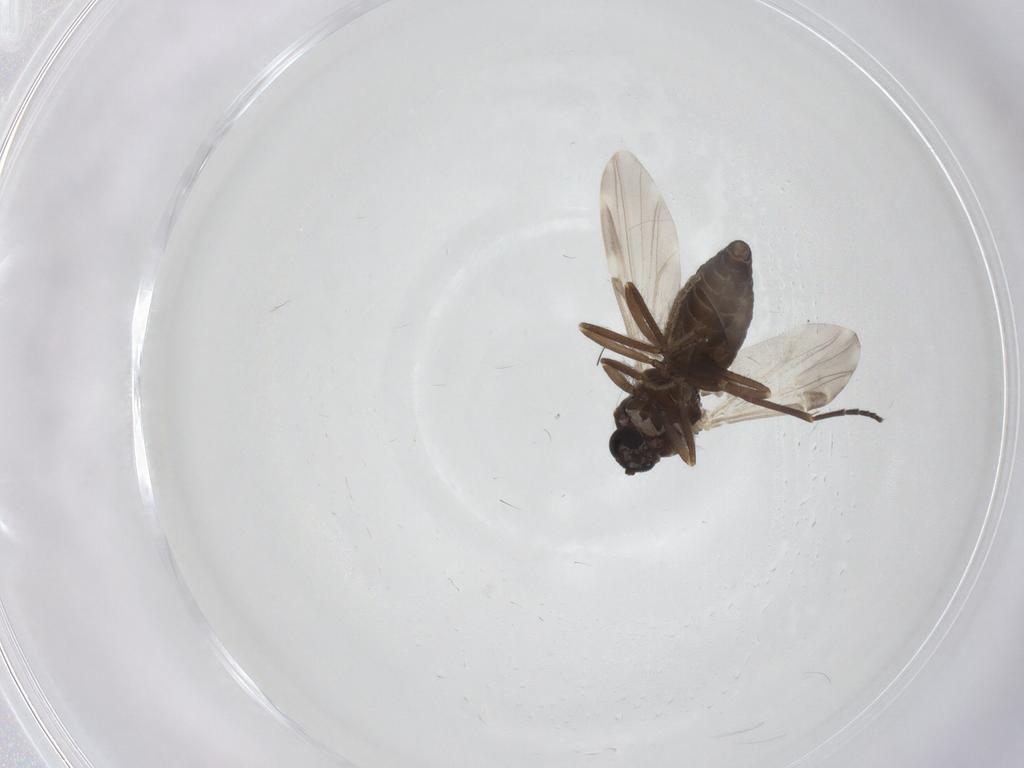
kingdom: Animalia
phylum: Arthropoda
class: Insecta
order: Diptera
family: Ceratopogonidae
